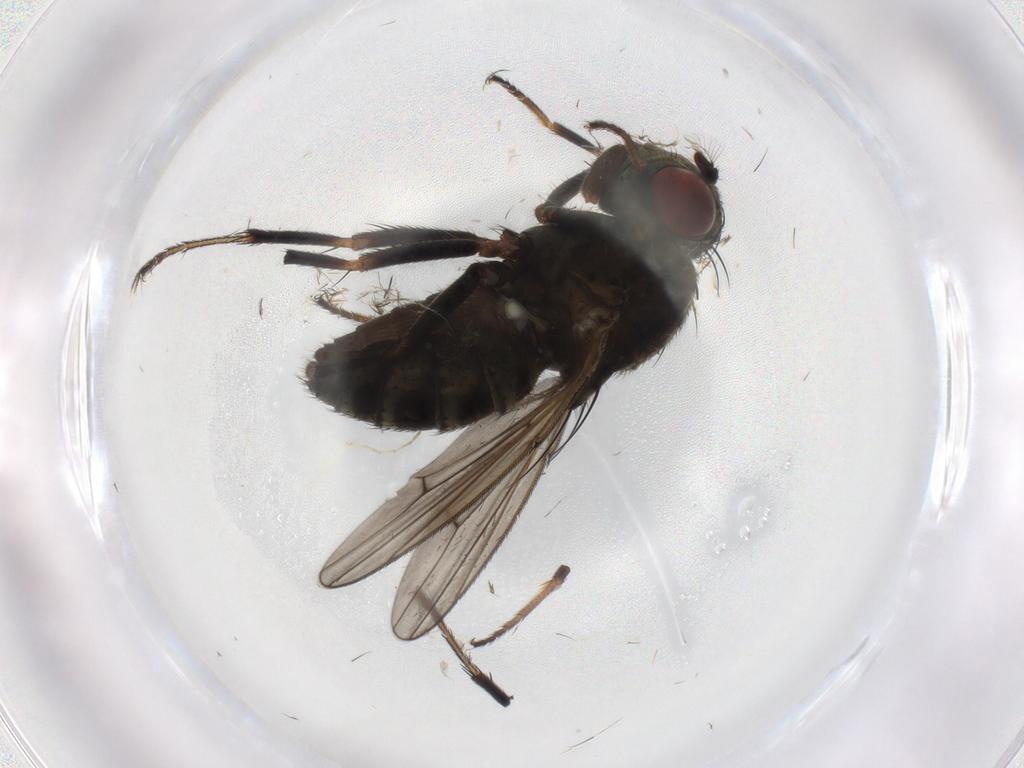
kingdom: Animalia
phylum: Arthropoda
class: Insecta
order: Diptera
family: Ephydridae
